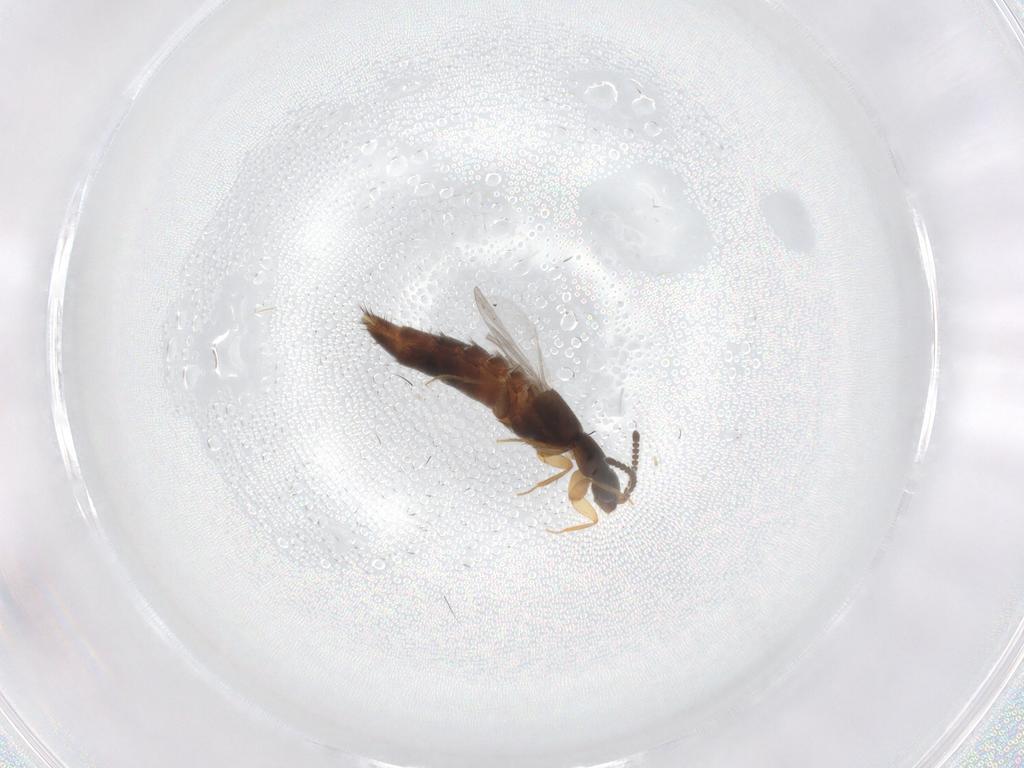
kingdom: Animalia
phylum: Arthropoda
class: Insecta
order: Coleoptera
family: Staphylinidae
